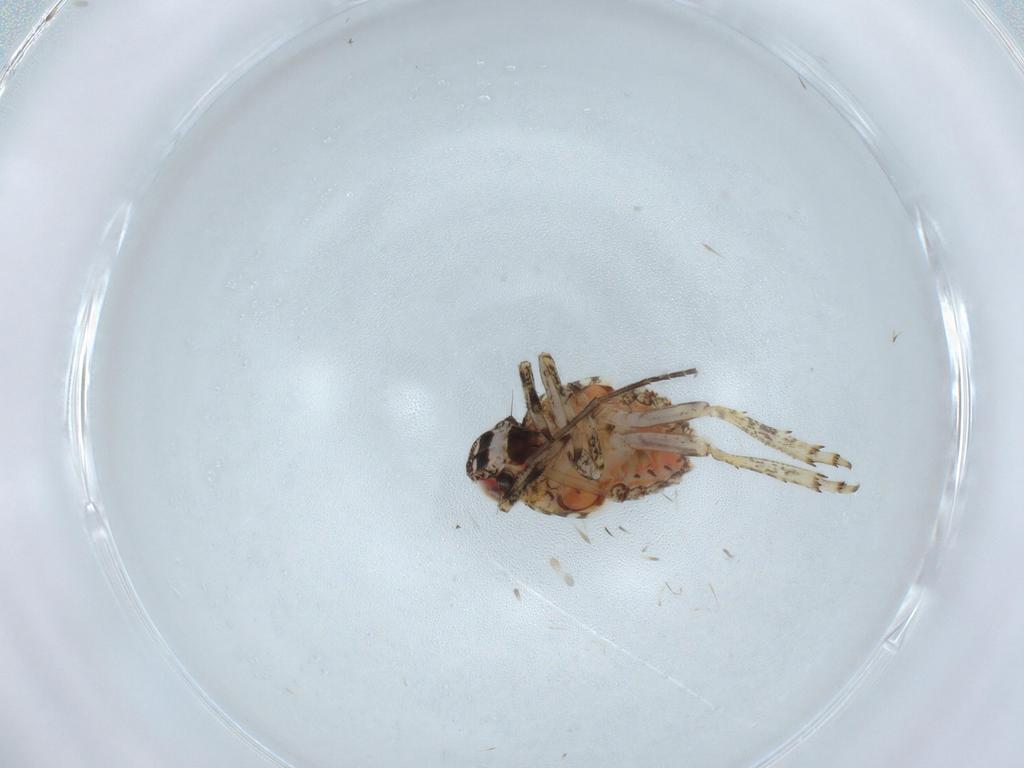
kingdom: Animalia
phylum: Arthropoda
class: Insecta
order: Hemiptera
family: Issidae
